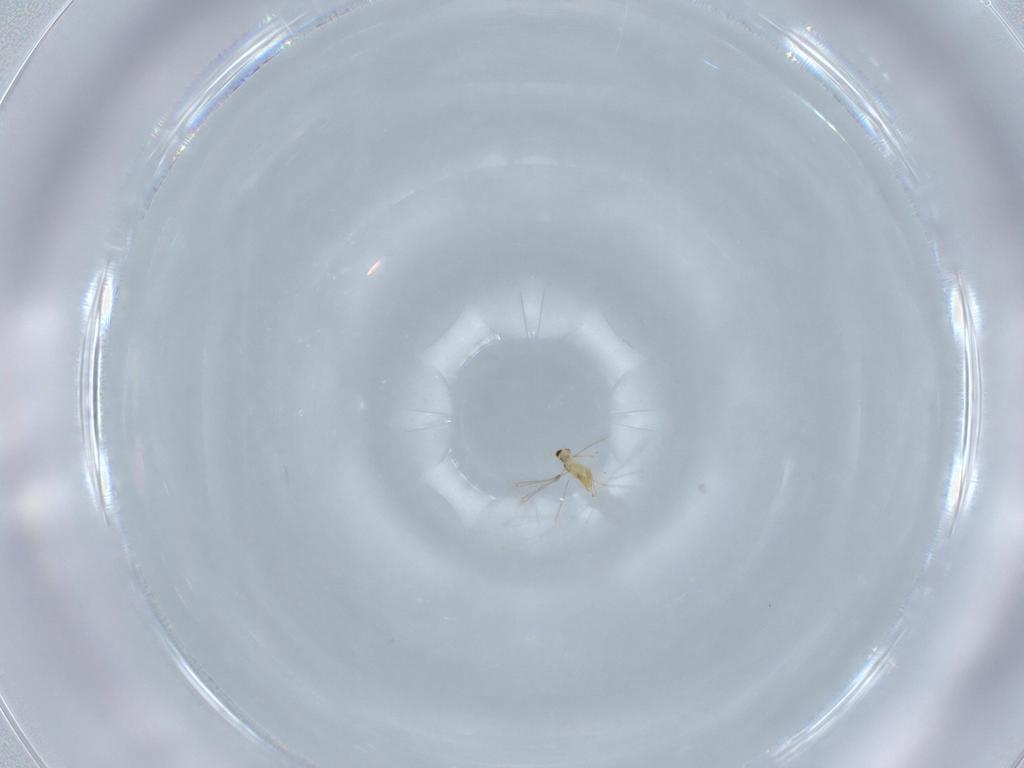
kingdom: Animalia
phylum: Arthropoda
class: Insecta
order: Hymenoptera
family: Mymaridae
